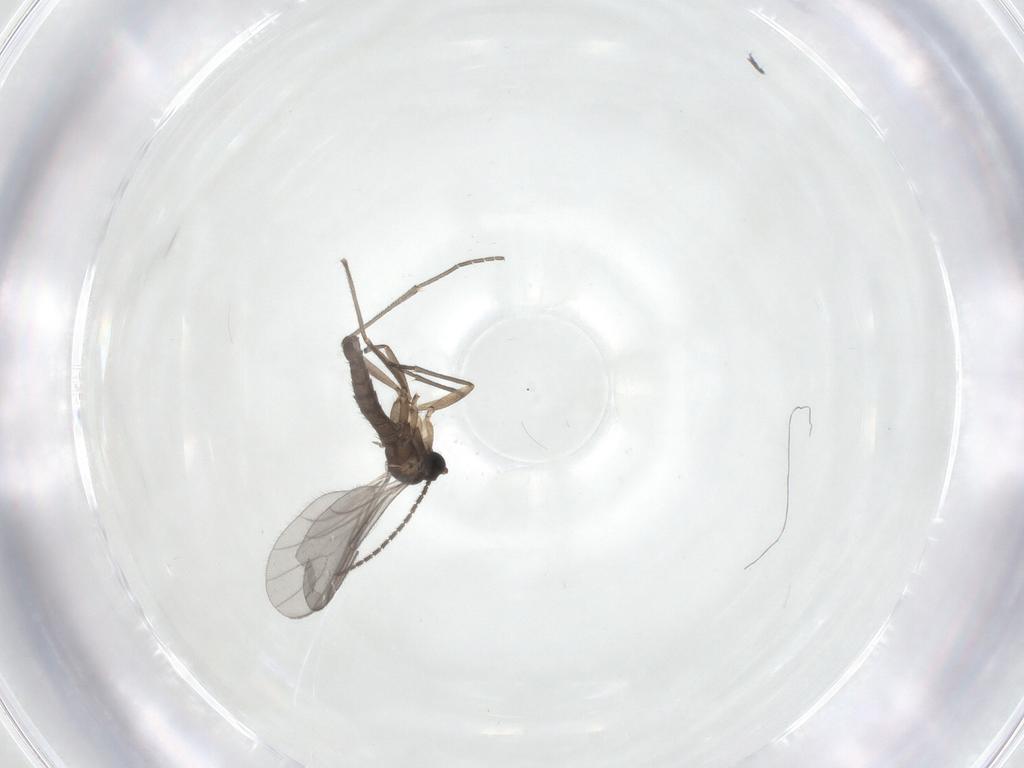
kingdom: Animalia
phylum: Arthropoda
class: Insecta
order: Diptera
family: Sciaridae
